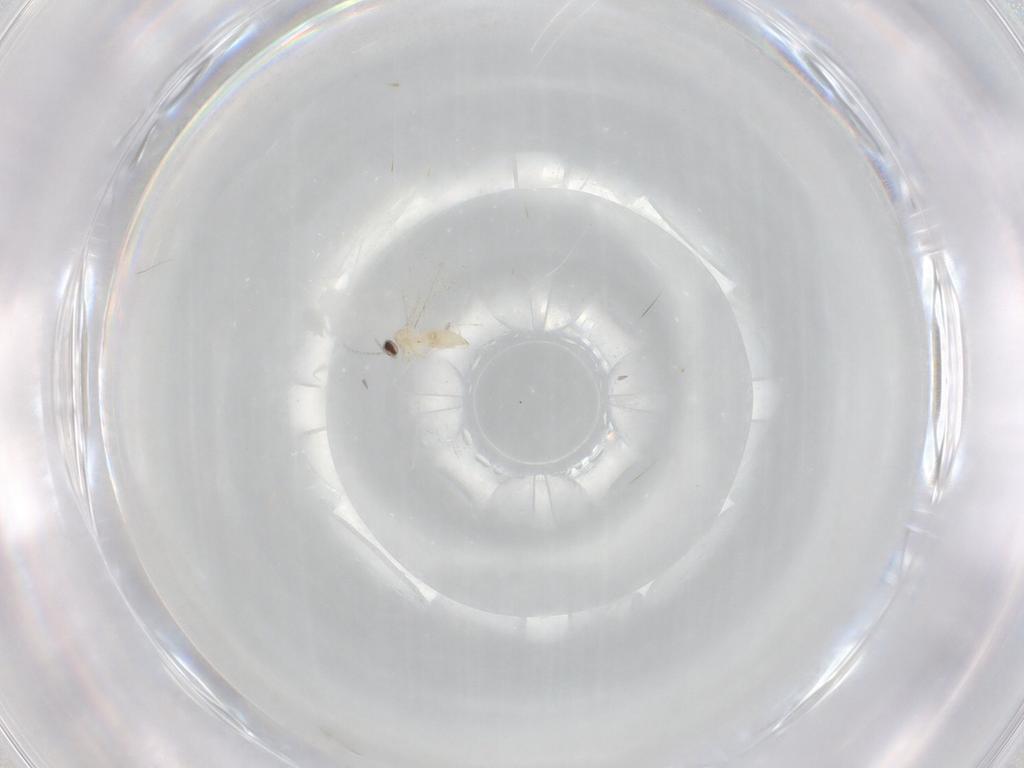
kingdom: Animalia
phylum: Arthropoda
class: Insecta
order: Diptera
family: Cecidomyiidae
